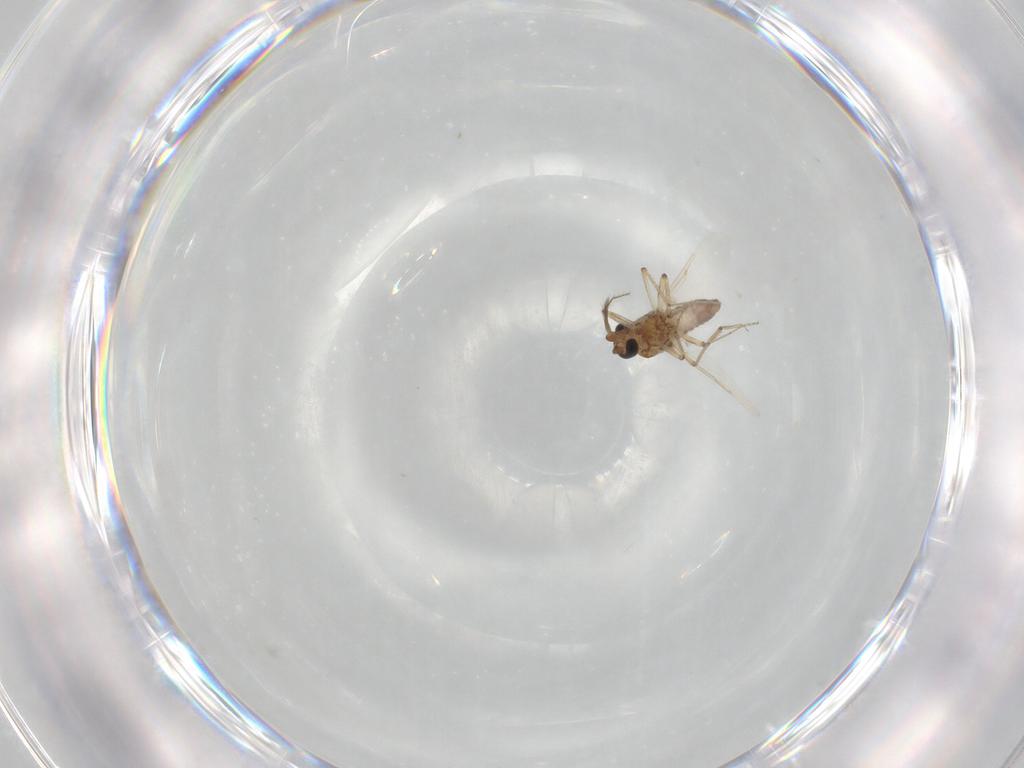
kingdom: Animalia
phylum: Arthropoda
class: Insecta
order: Diptera
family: Ceratopogonidae
